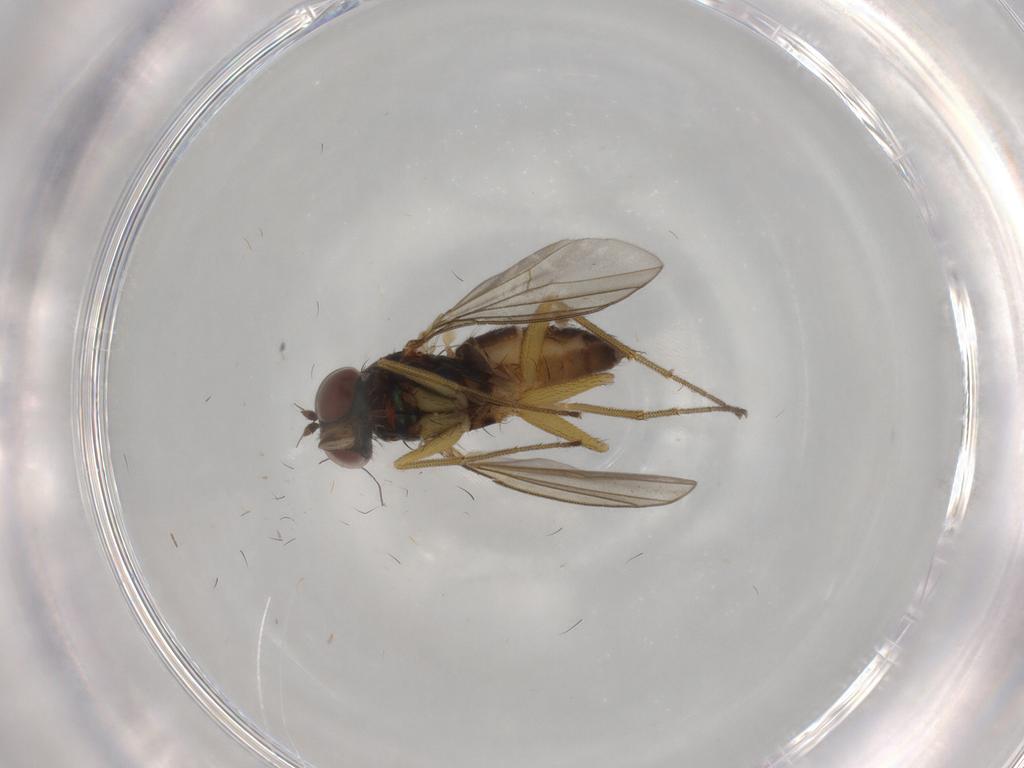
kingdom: Animalia
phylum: Arthropoda
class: Insecta
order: Diptera
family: Dolichopodidae
